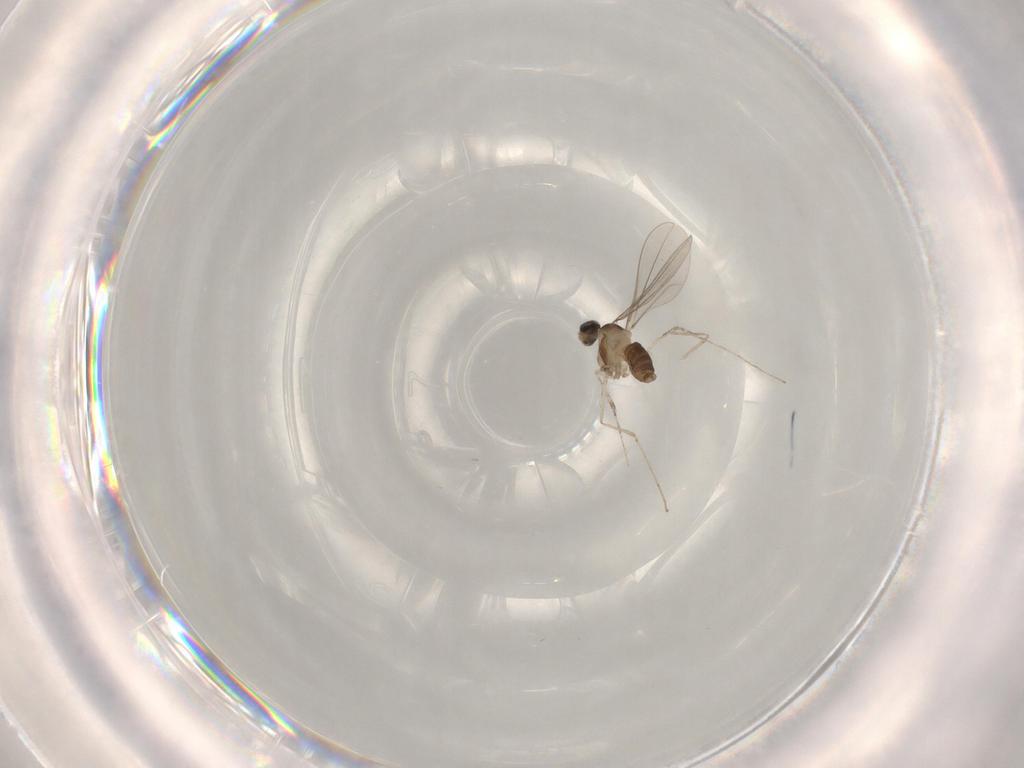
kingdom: Animalia
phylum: Arthropoda
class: Insecta
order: Diptera
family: Cecidomyiidae
